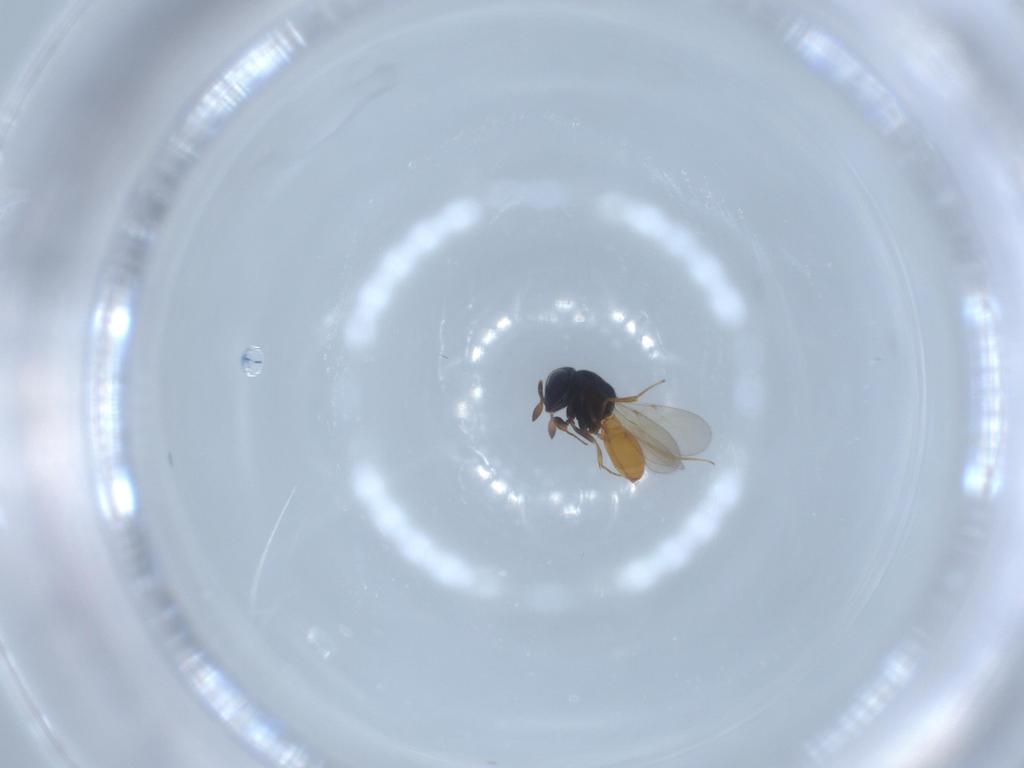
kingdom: Animalia
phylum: Arthropoda
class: Insecta
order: Hymenoptera
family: Scelionidae
